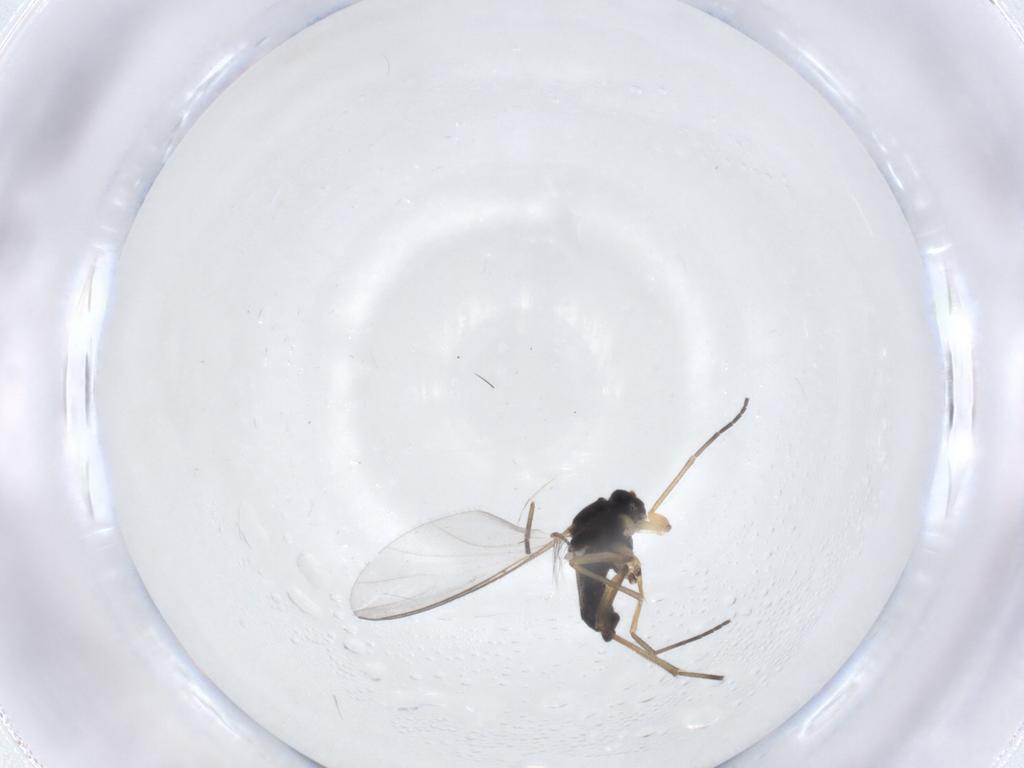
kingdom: Animalia
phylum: Arthropoda
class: Insecta
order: Diptera
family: Sciaridae
